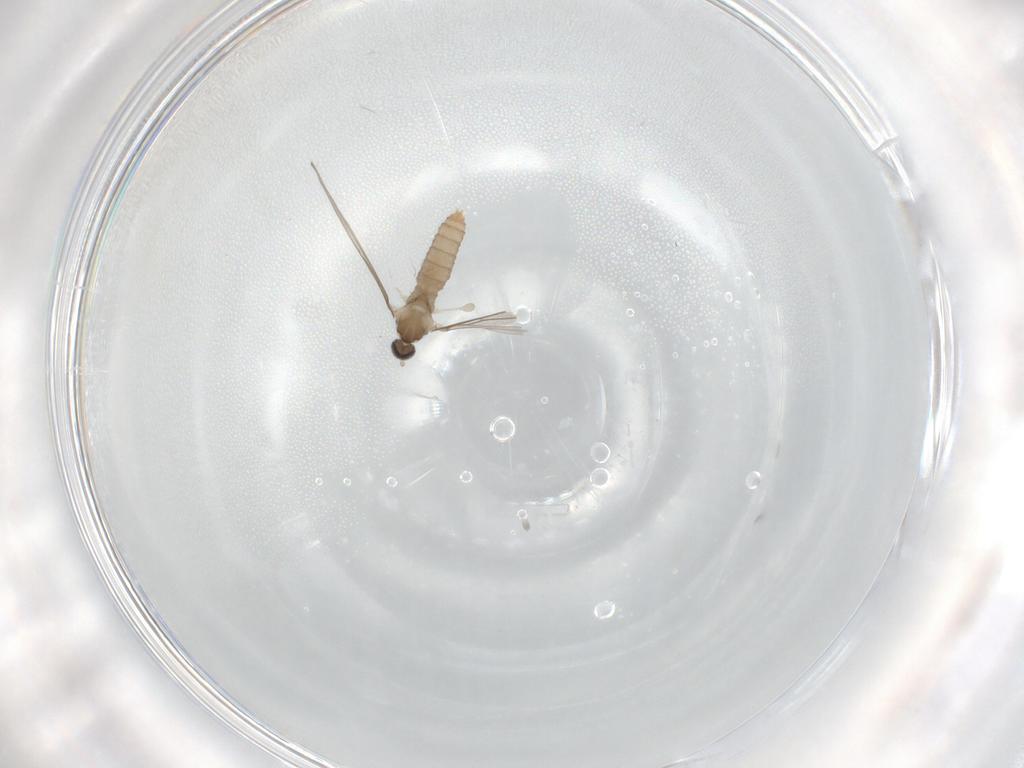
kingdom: Animalia
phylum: Arthropoda
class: Insecta
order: Diptera
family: Cecidomyiidae
